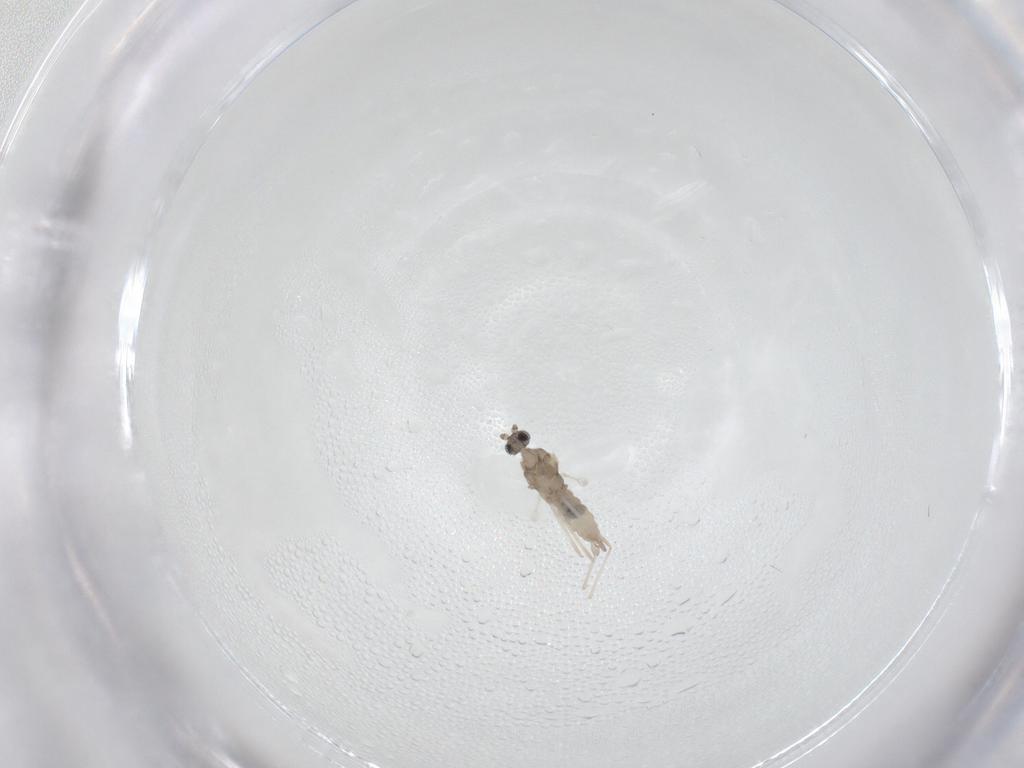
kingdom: Animalia
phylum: Arthropoda
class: Insecta
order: Diptera
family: Cecidomyiidae
